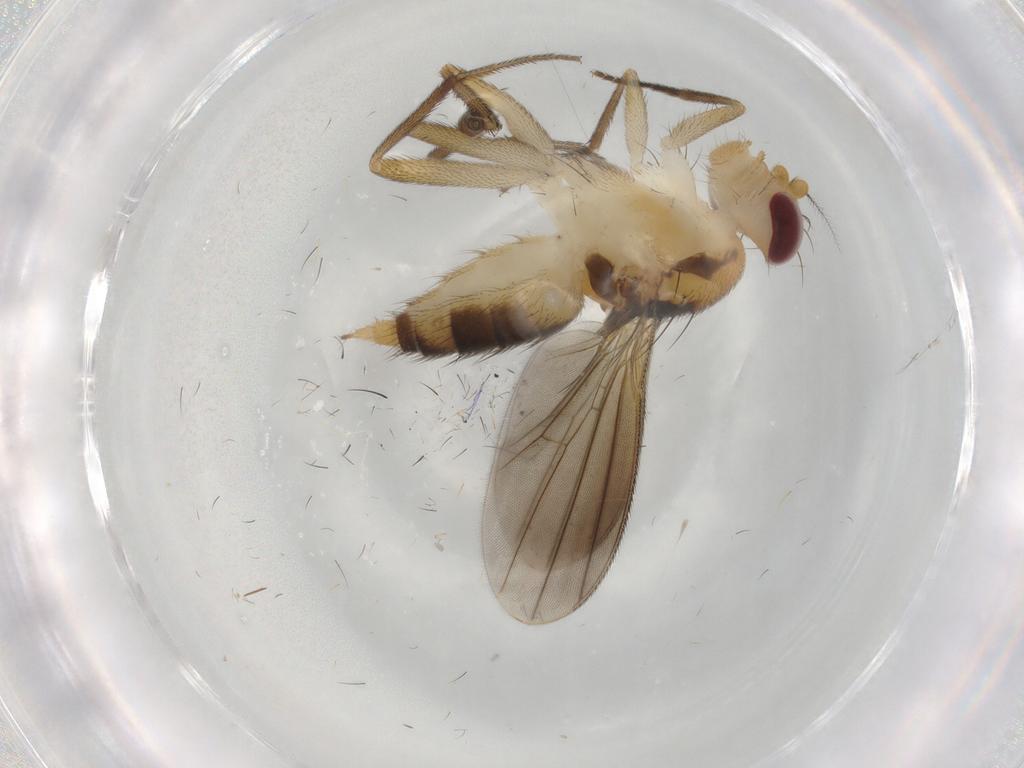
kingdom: Animalia
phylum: Arthropoda
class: Insecta
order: Diptera
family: Clusiidae
